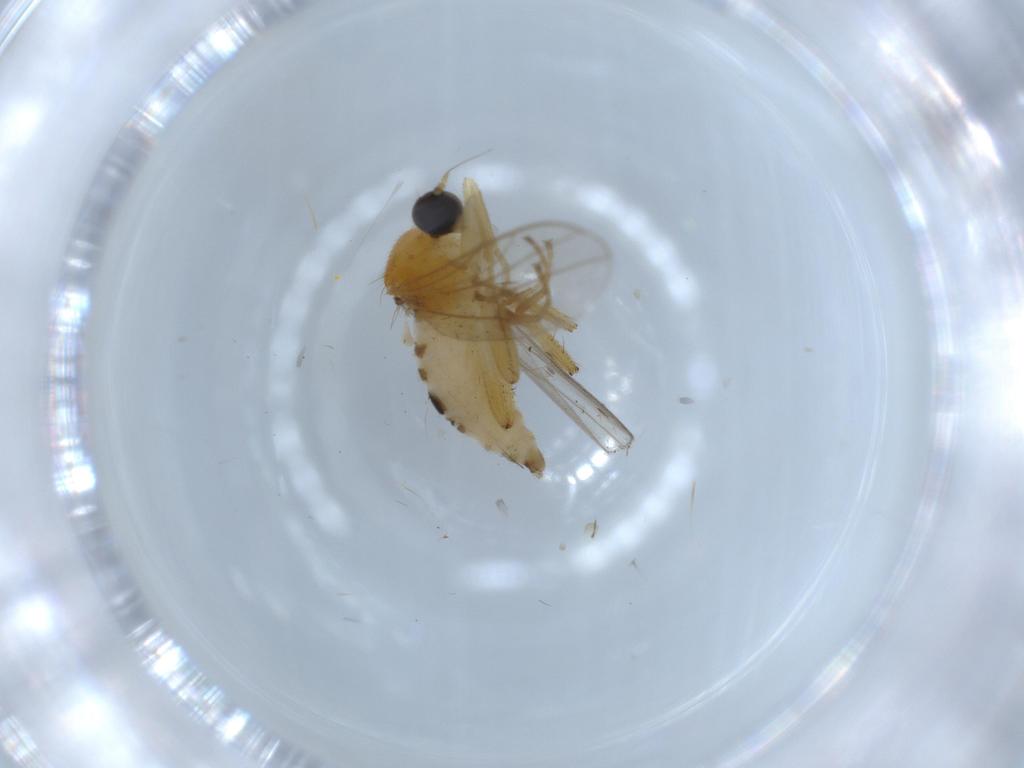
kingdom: Animalia
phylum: Arthropoda
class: Insecta
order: Diptera
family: Hybotidae
